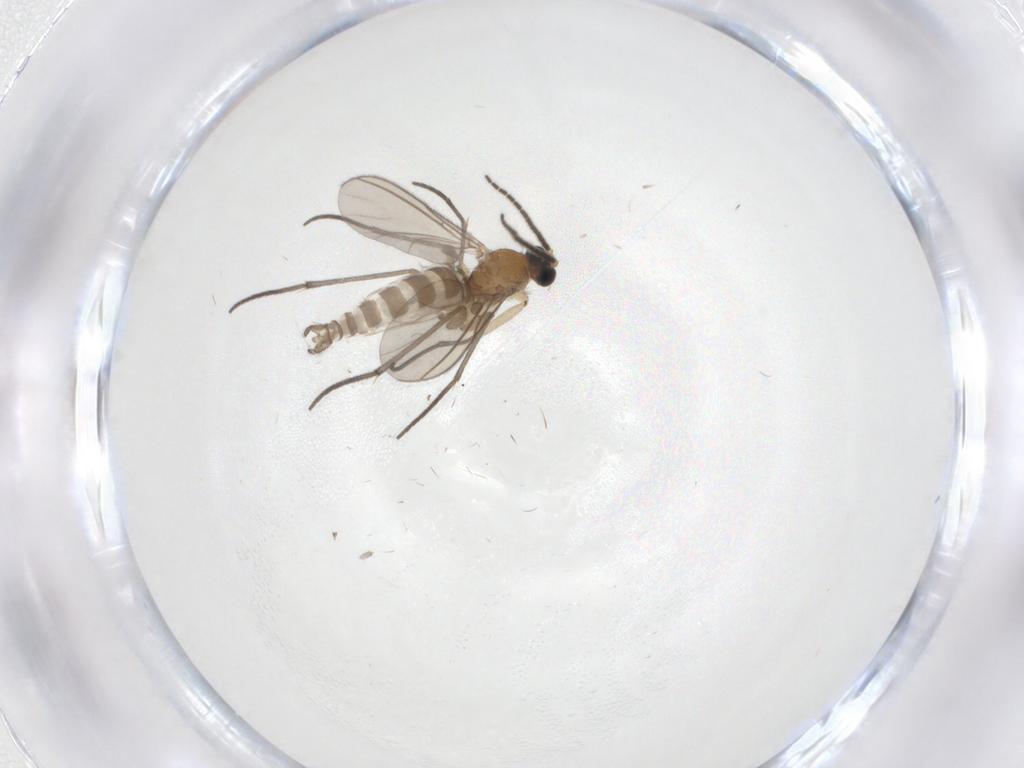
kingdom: Animalia
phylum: Arthropoda
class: Insecta
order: Diptera
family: Sciaridae
